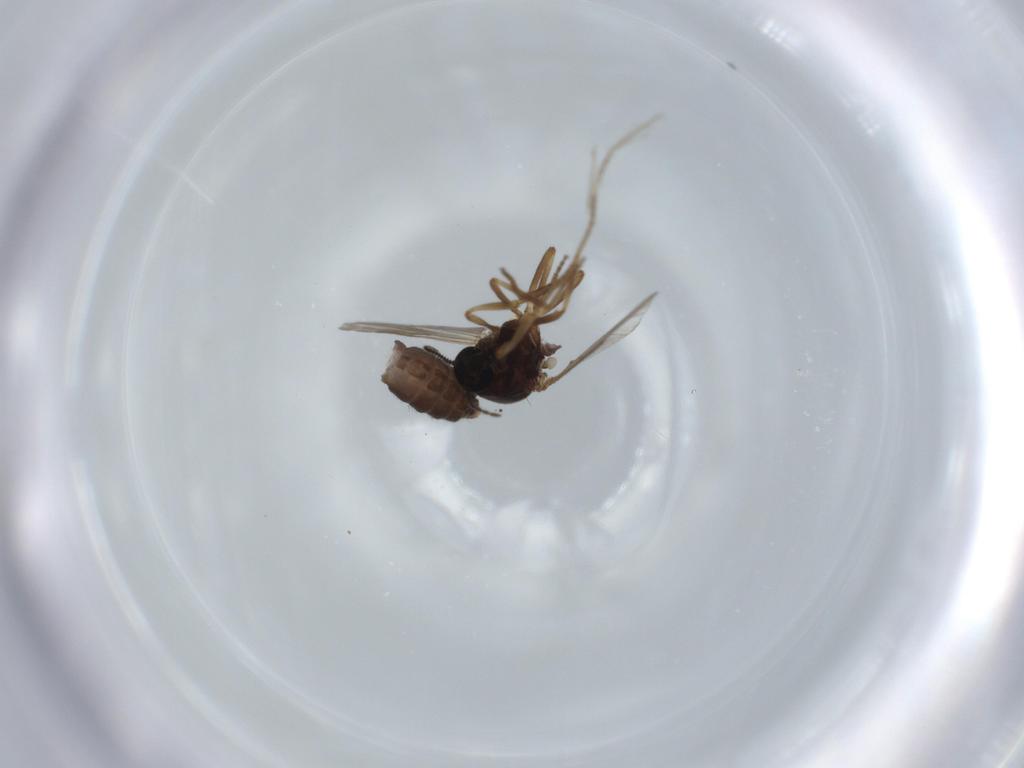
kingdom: Animalia
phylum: Arthropoda
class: Insecta
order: Diptera
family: Ceratopogonidae
